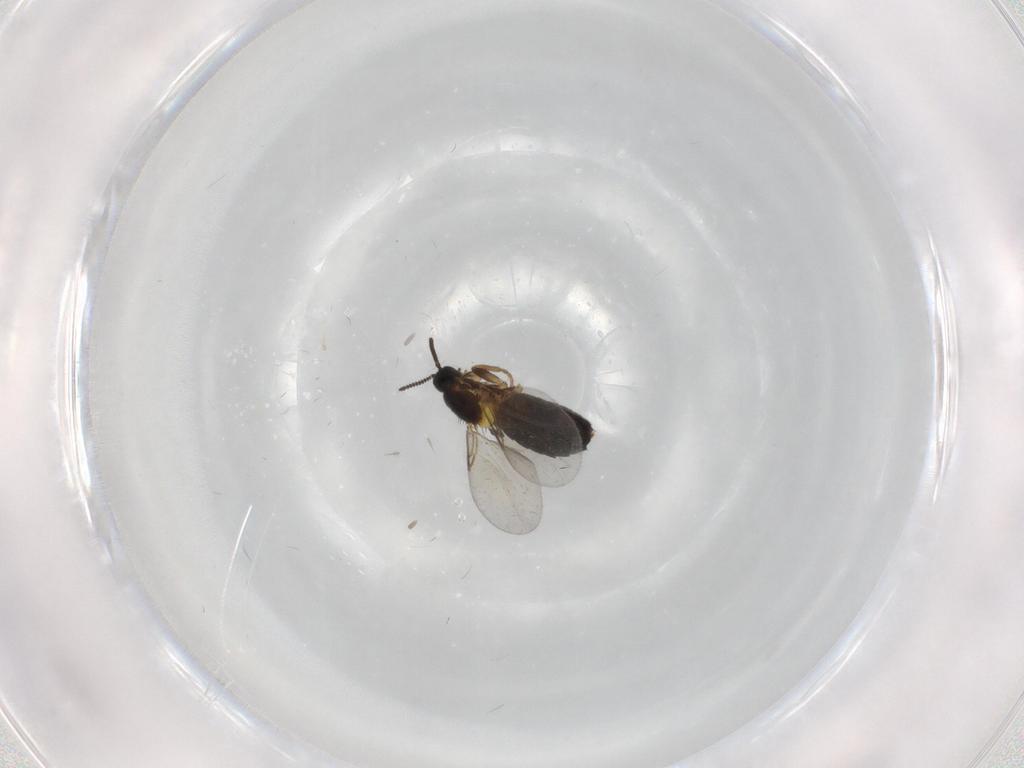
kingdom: Animalia
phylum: Arthropoda
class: Insecta
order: Diptera
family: Scatopsidae
